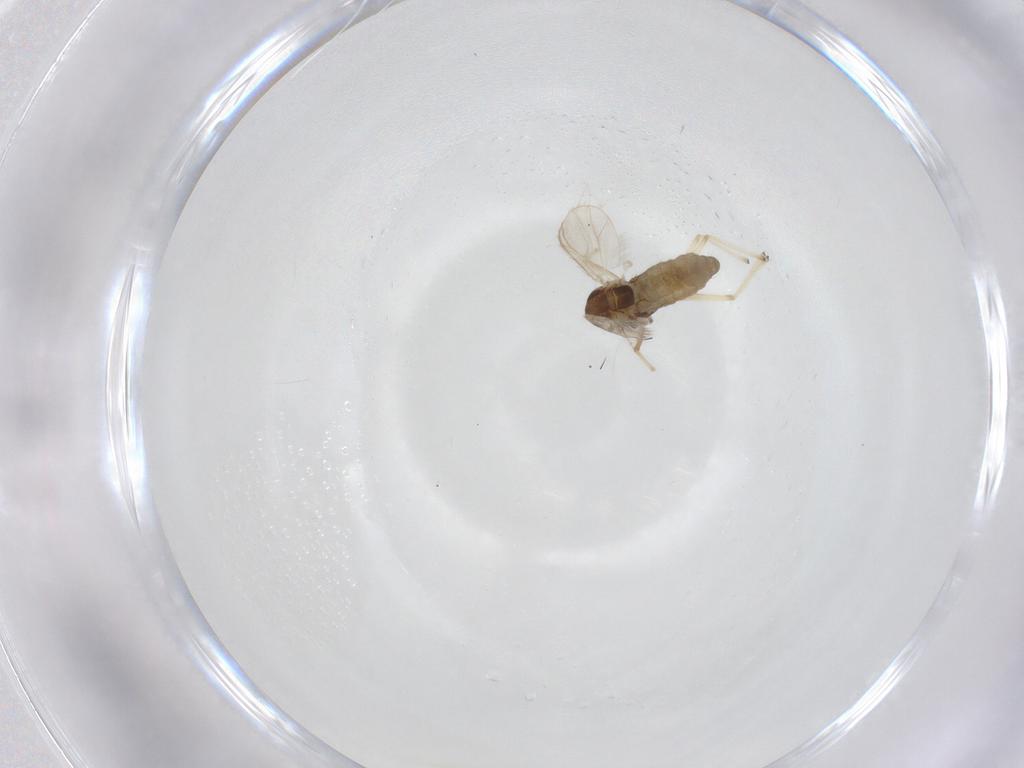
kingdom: Animalia
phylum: Arthropoda
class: Insecta
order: Diptera
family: Chironomidae
